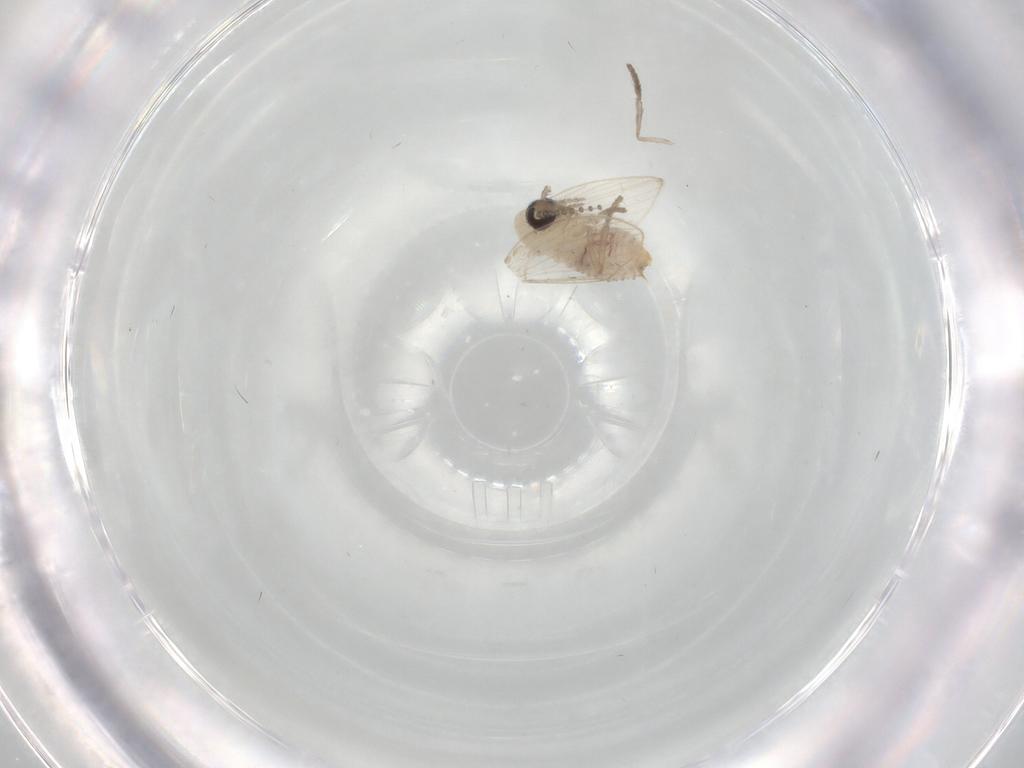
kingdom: Animalia
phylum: Arthropoda
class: Insecta
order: Diptera
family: Psychodidae
